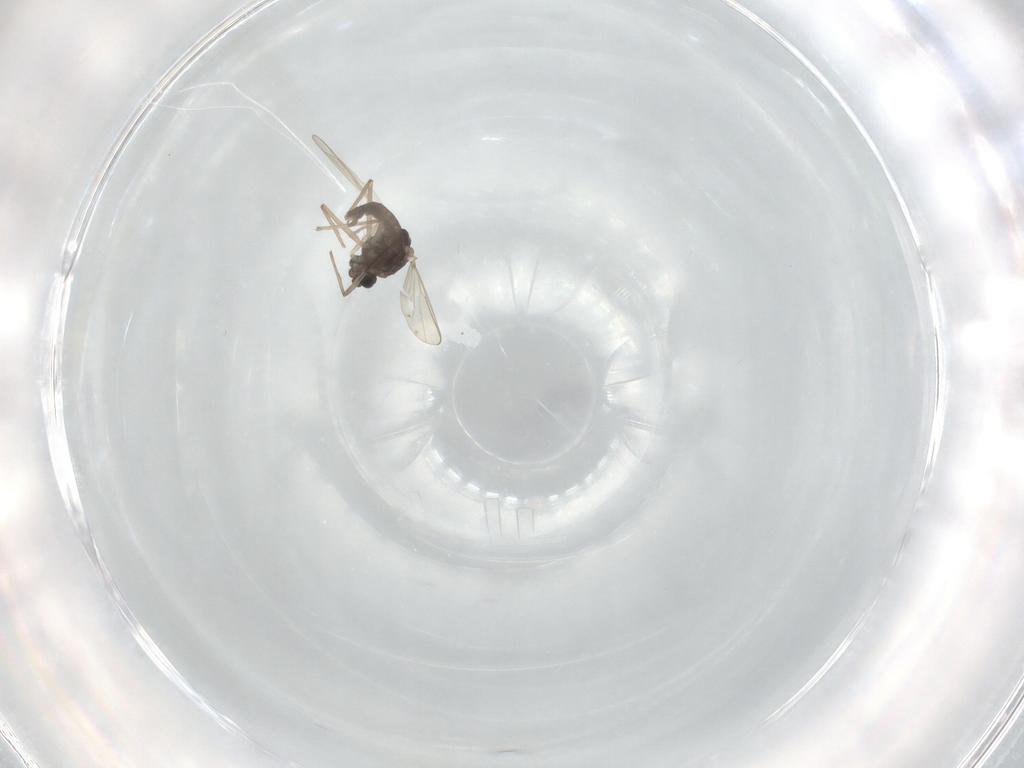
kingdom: Animalia
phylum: Arthropoda
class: Insecta
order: Diptera
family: Chironomidae
